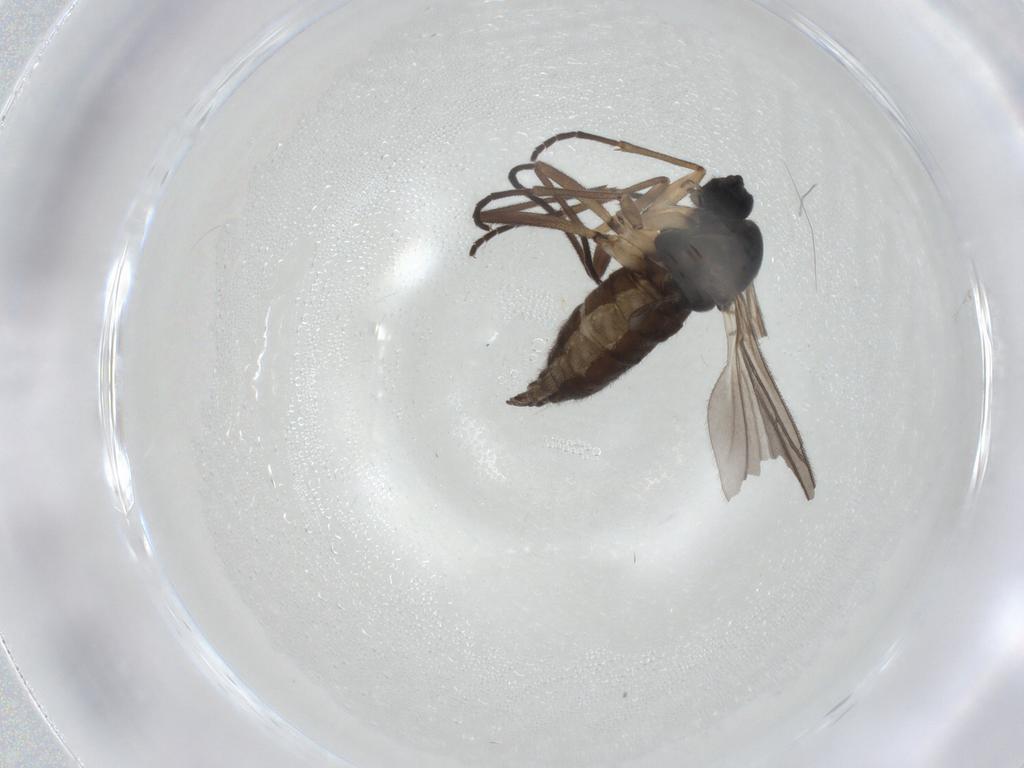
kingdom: Animalia
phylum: Arthropoda
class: Insecta
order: Diptera
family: Sciaridae
